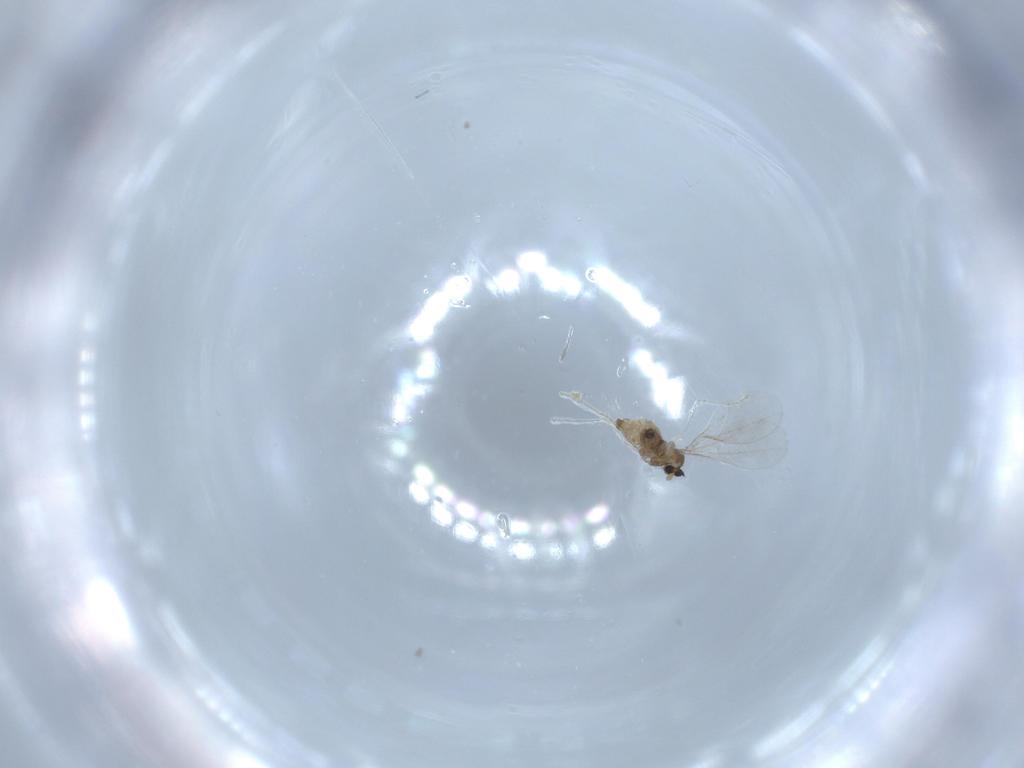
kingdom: Animalia
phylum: Arthropoda
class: Insecta
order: Diptera
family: Cecidomyiidae
